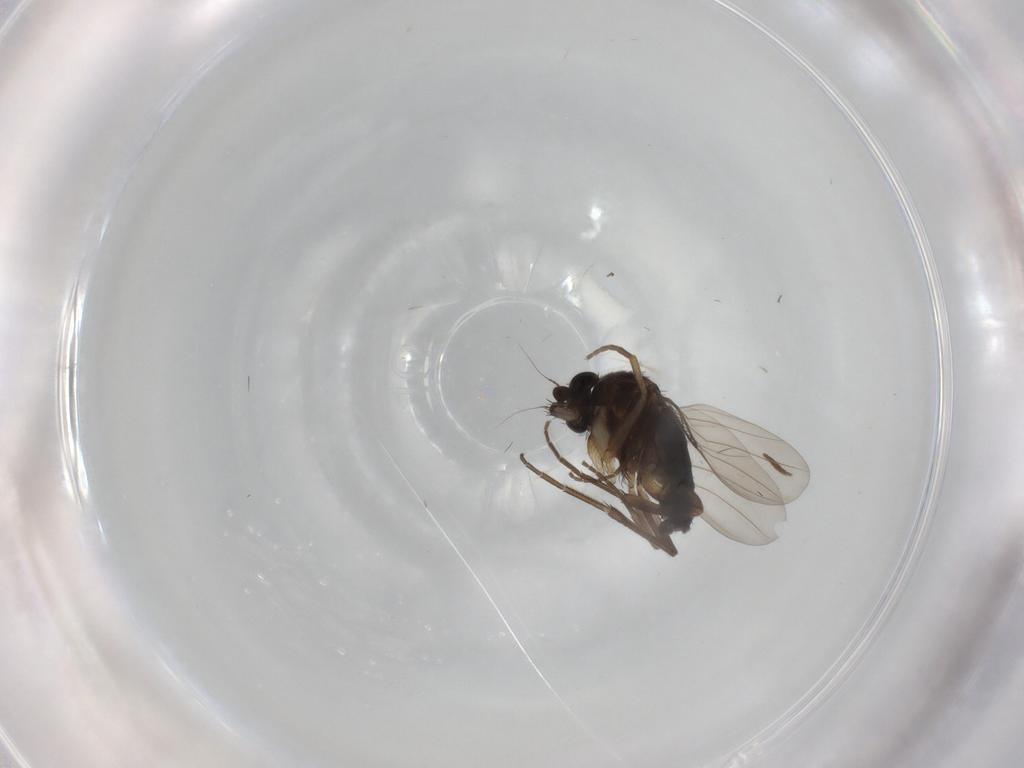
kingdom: Animalia
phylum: Arthropoda
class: Insecta
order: Diptera
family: Phoridae
